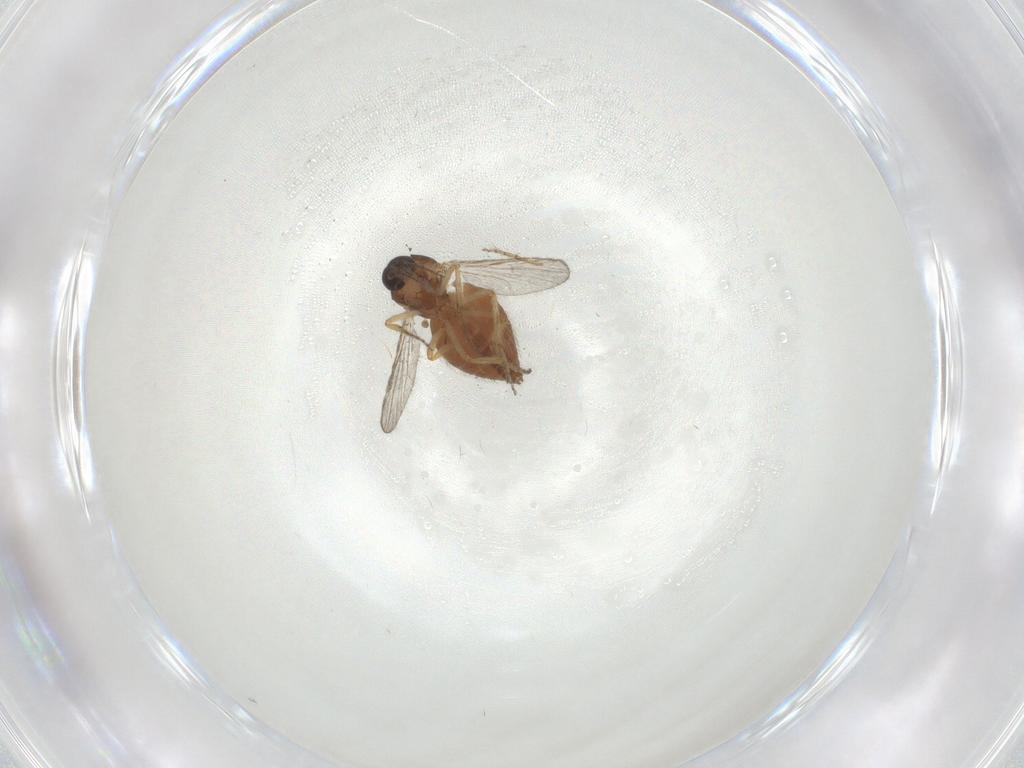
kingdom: Animalia
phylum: Arthropoda
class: Insecta
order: Diptera
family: Ceratopogonidae
